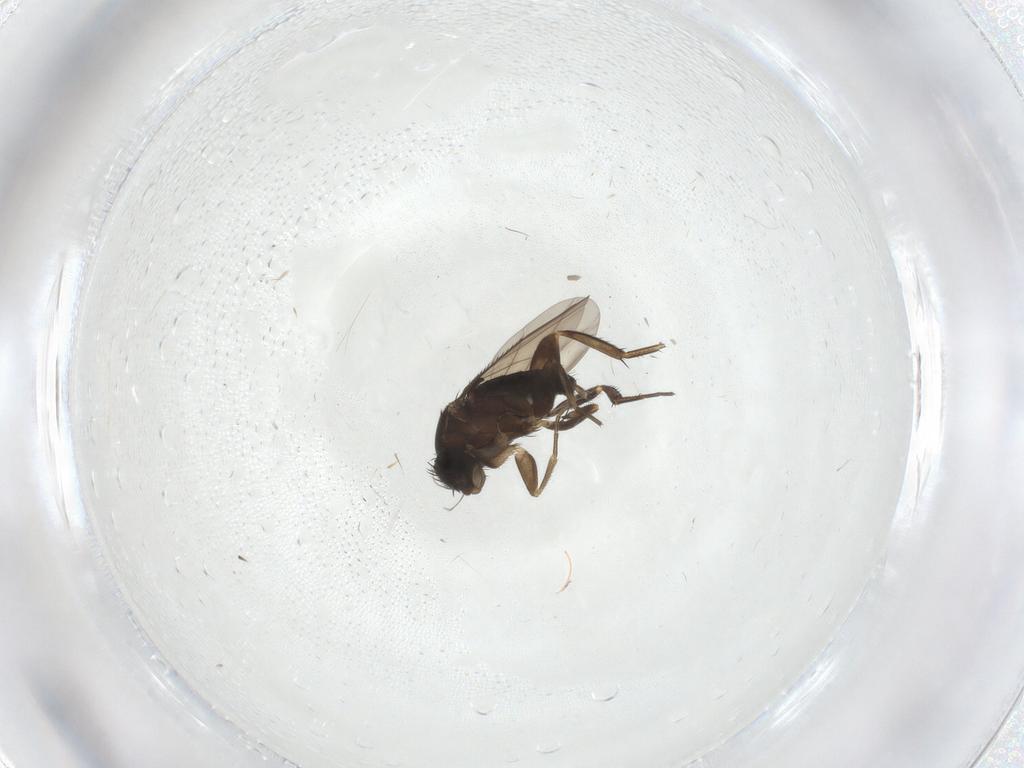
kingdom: Animalia
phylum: Arthropoda
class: Insecta
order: Diptera
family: Phoridae
